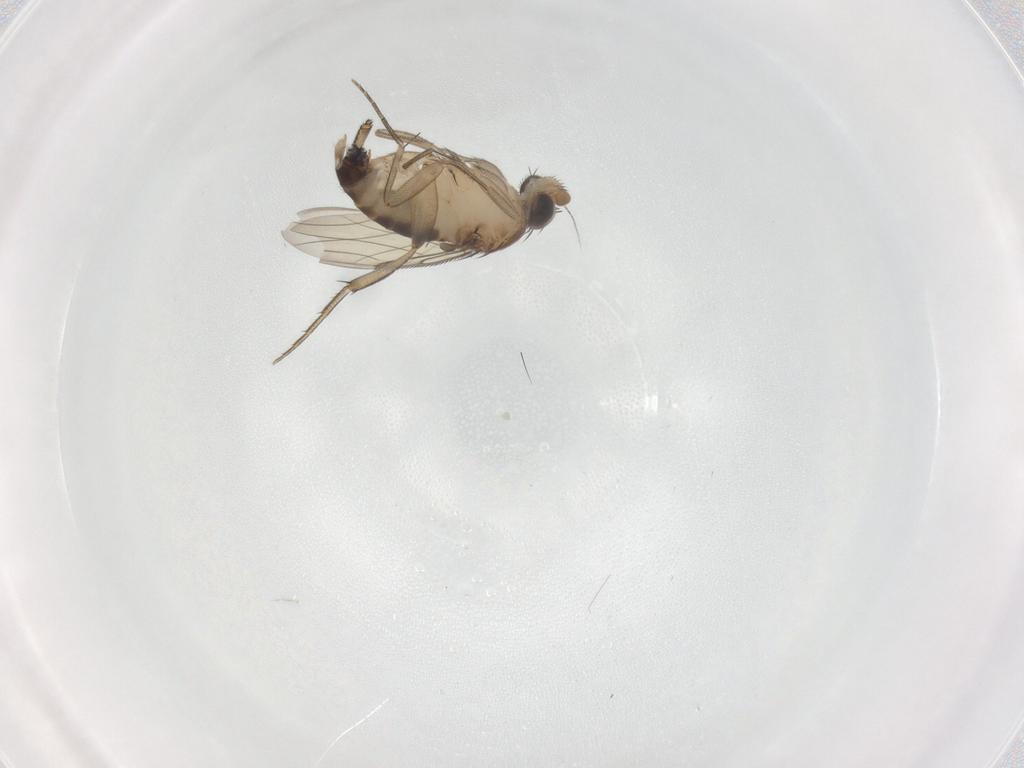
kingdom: Animalia
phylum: Arthropoda
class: Insecta
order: Diptera
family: Phoridae
